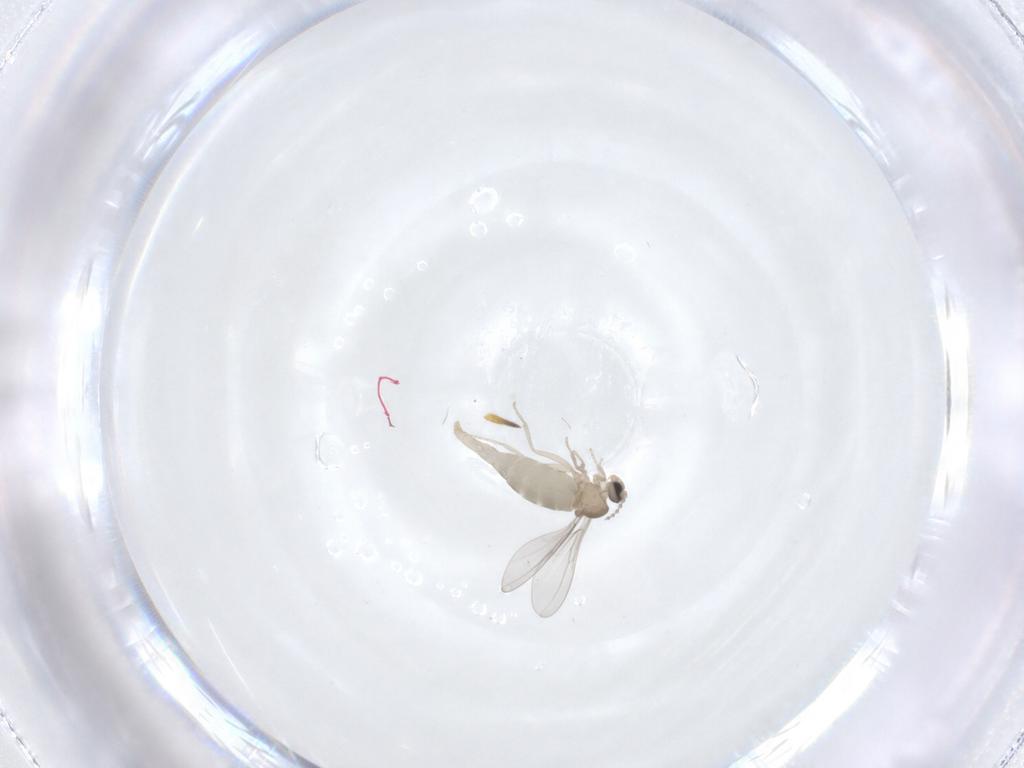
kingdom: Animalia
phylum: Arthropoda
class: Insecta
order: Diptera
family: Cecidomyiidae
